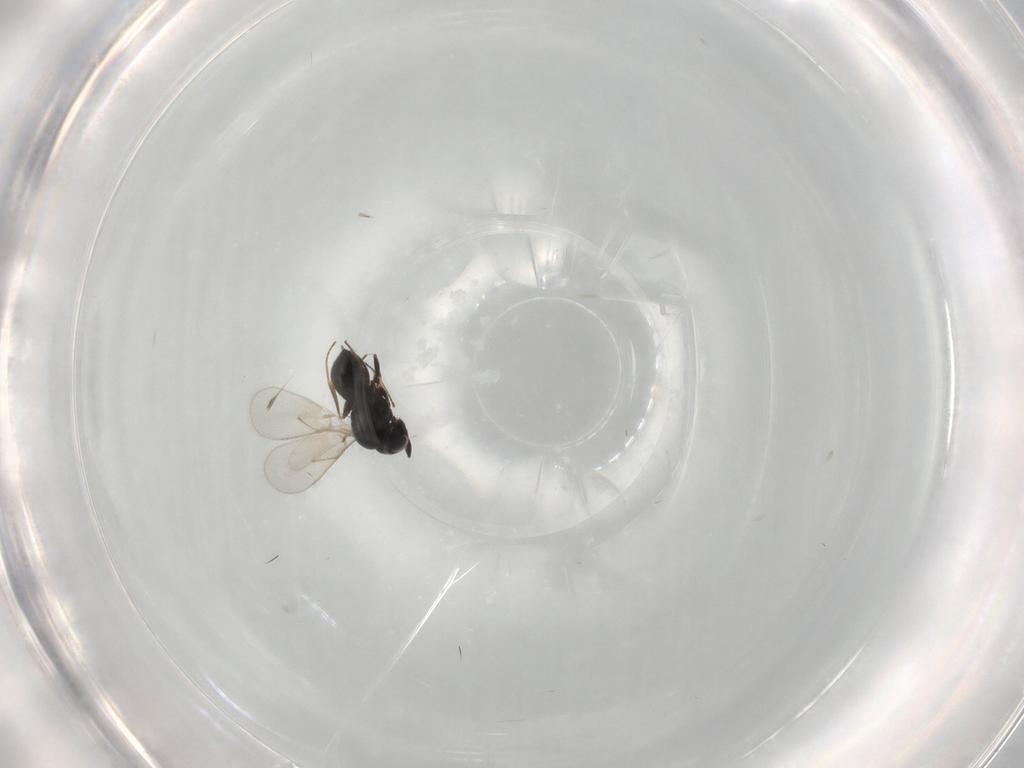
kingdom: Animalia
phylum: Arthropoda
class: Insecta
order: Hymenoptera
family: Scelionidae
